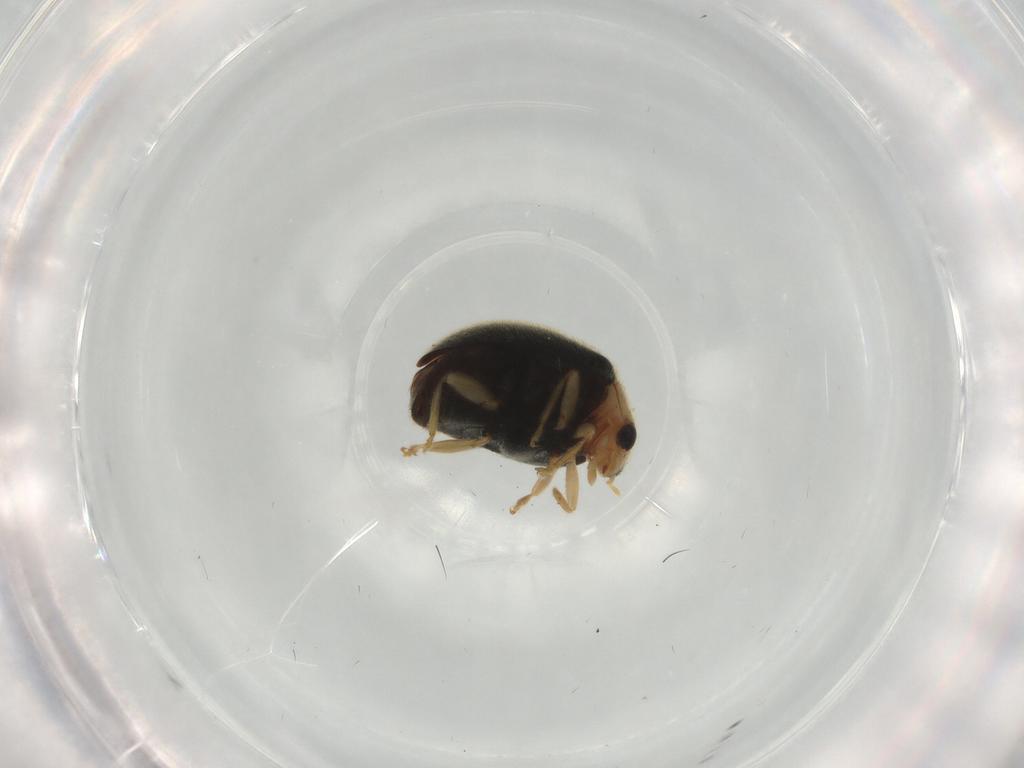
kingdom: Animalia
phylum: Arthropoda
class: Insecta
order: Coleoptera
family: Coccinellidae
